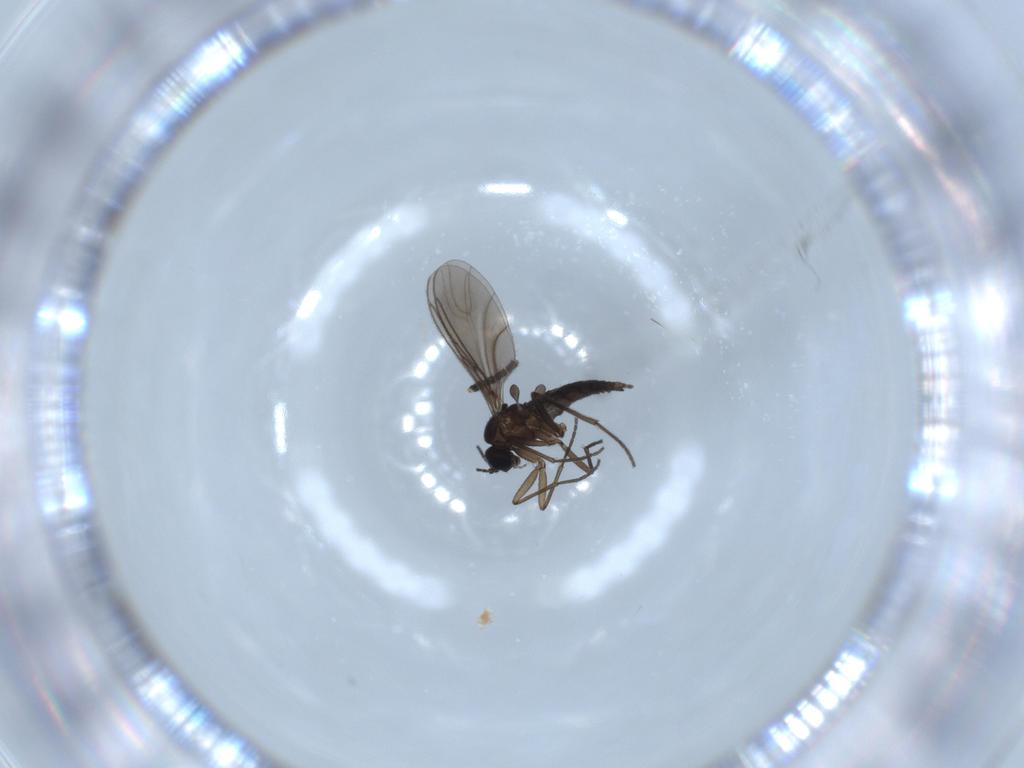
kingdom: Animalia
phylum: Arthropoda
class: Insecta
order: Diptera
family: Sciaridae
